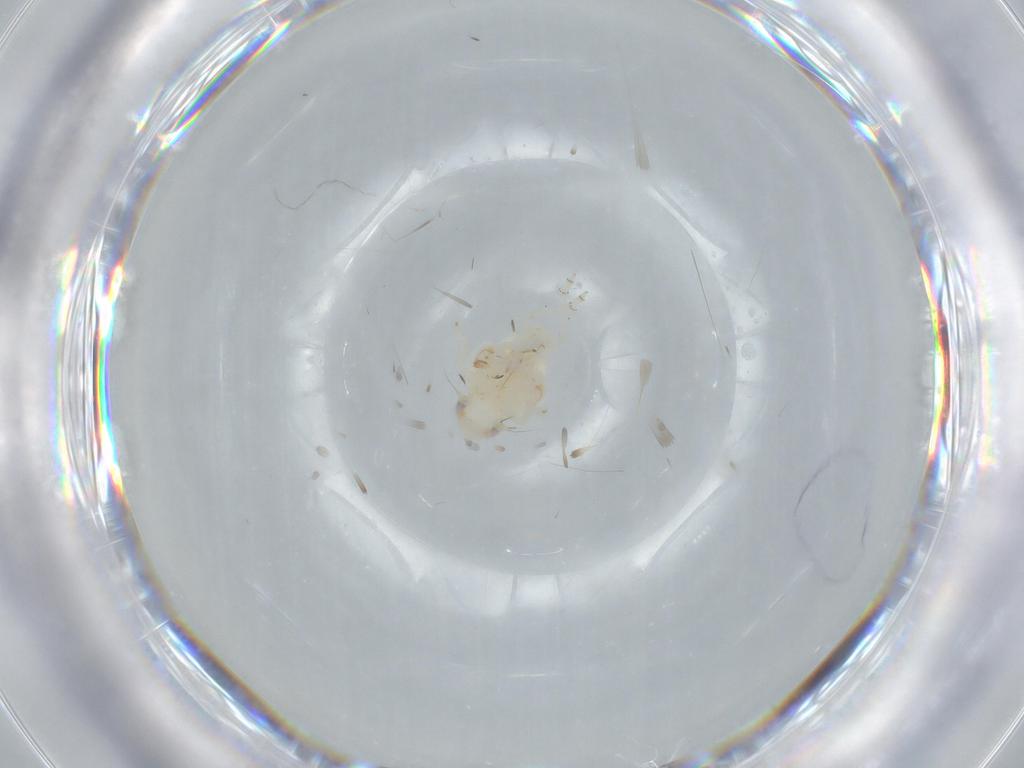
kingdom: Animalia
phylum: Arthropoda
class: Insecta
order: Hemiptera
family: Nogodinidae
